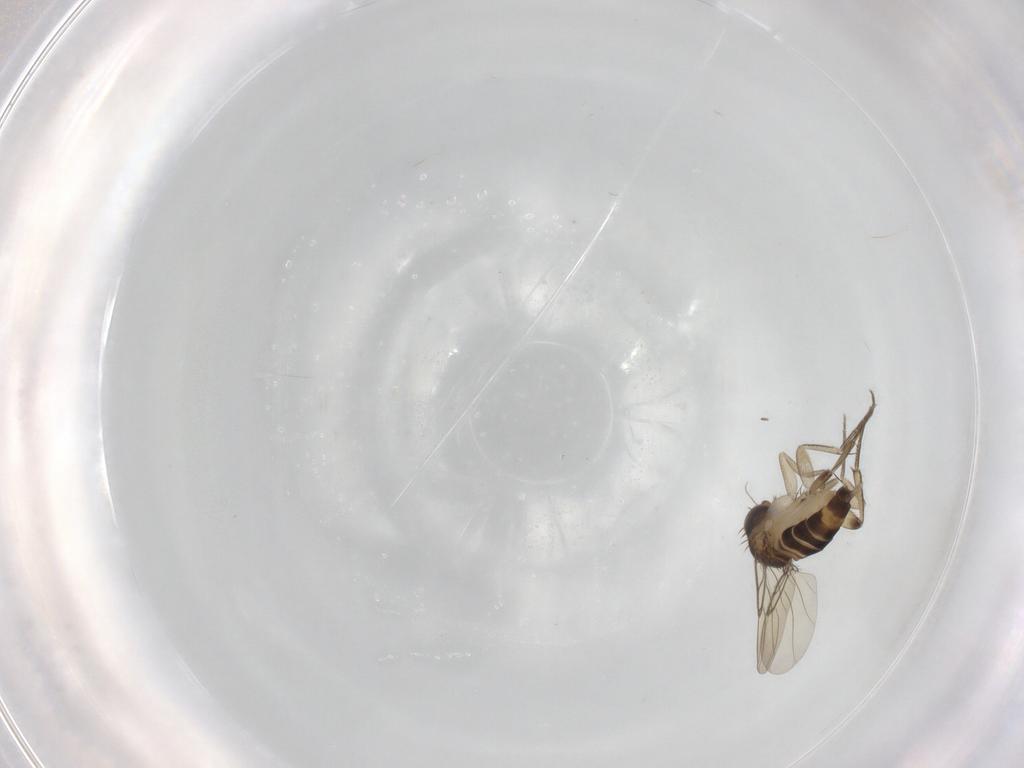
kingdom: Animalia
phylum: Arthropoda
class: Insecta
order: Diptera
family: Phoridae
